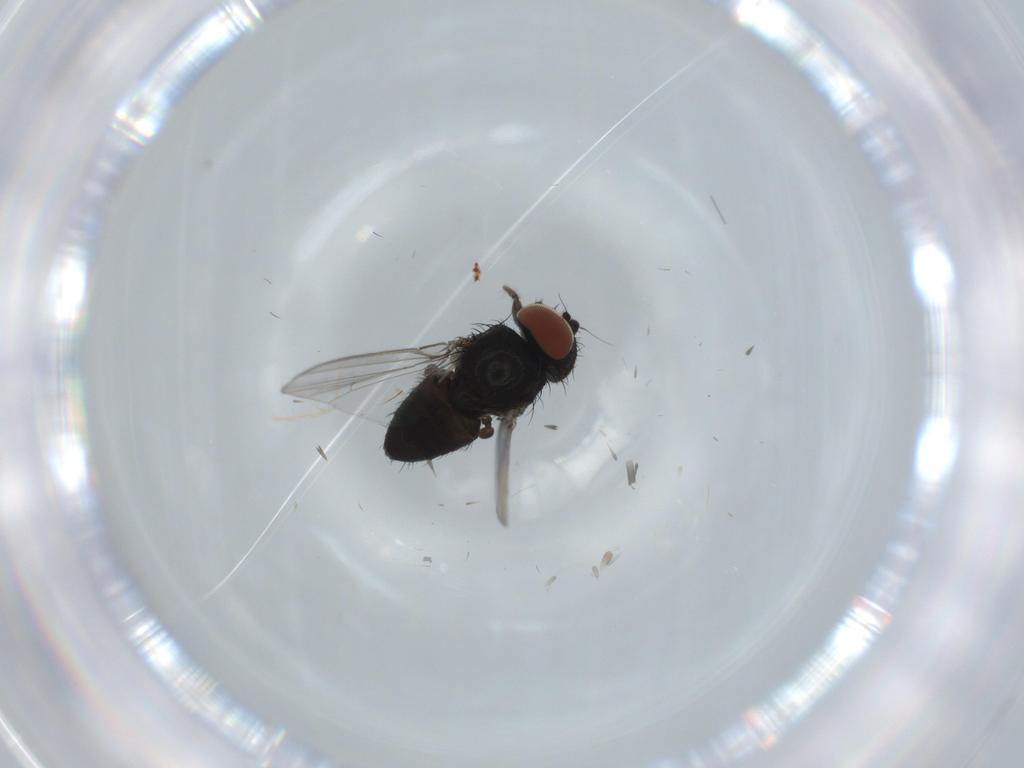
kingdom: Animalia
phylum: Arthropoda
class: Insecta
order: Diptera
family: Milichiidae
